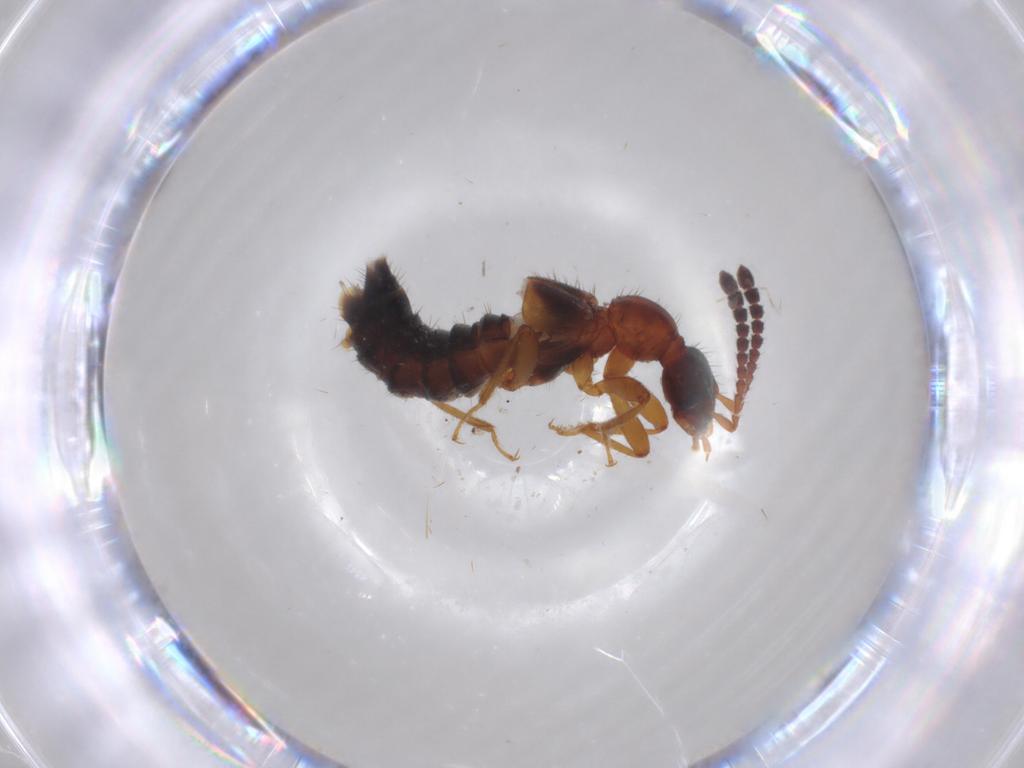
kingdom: Animalia
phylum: Arthropoda
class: Insecta
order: Coleoptera
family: Staphylinidae
